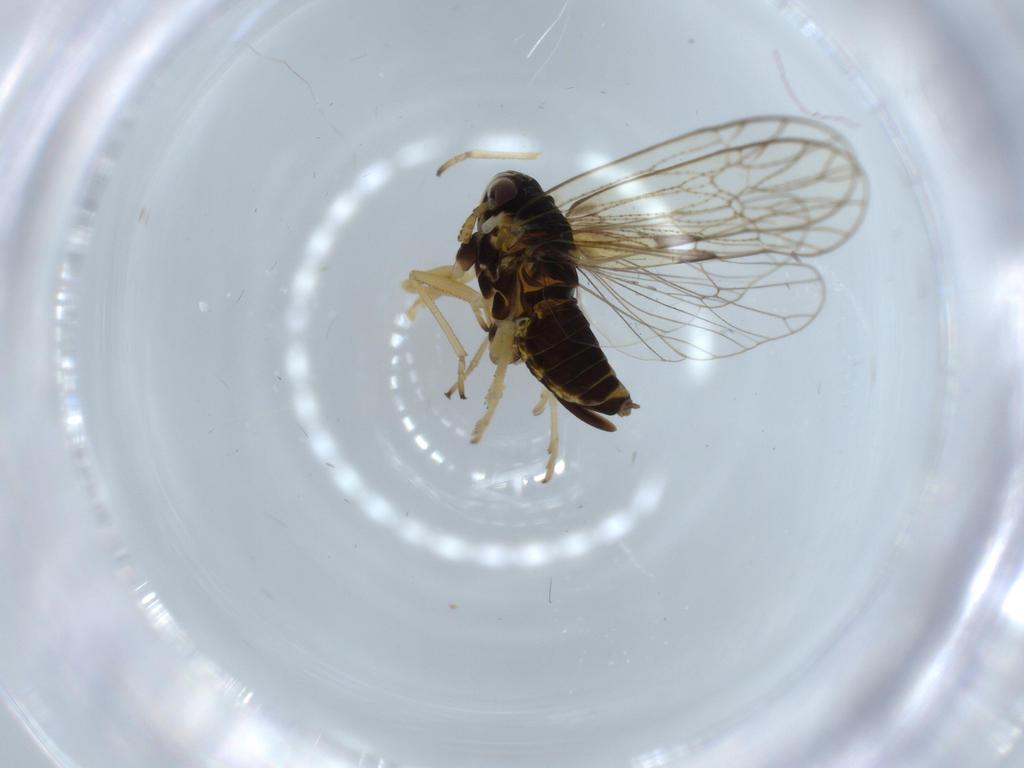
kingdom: Animalia
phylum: Arthropoda
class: Insecta
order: Hemiptera
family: Pentatomidae
